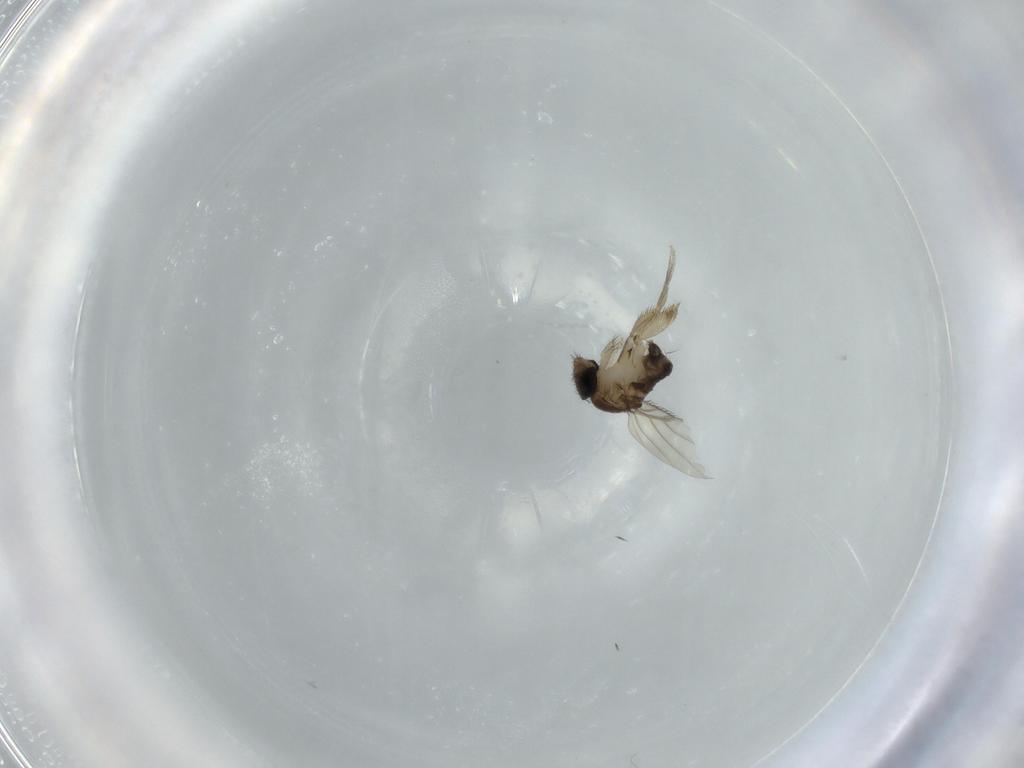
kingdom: Animalia
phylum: Arthropoda
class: Insecta
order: Diptera
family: Phoridae
